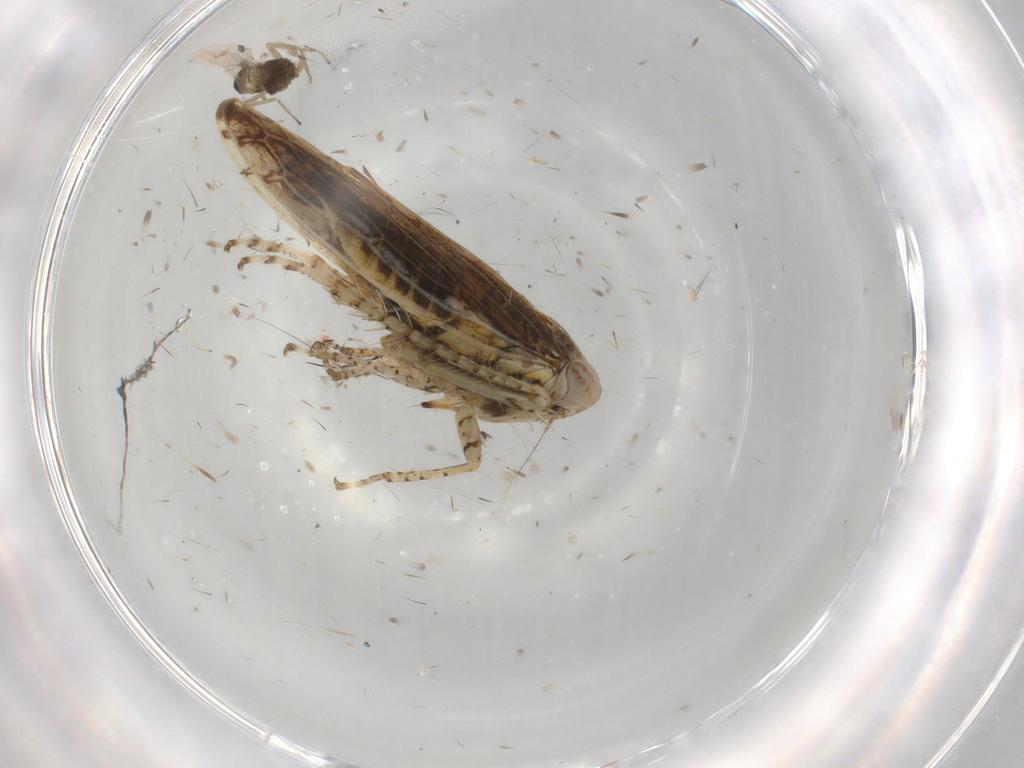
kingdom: Animalia
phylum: Arthropoda
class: Insecta
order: Hemiptera
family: Cicadellidae
